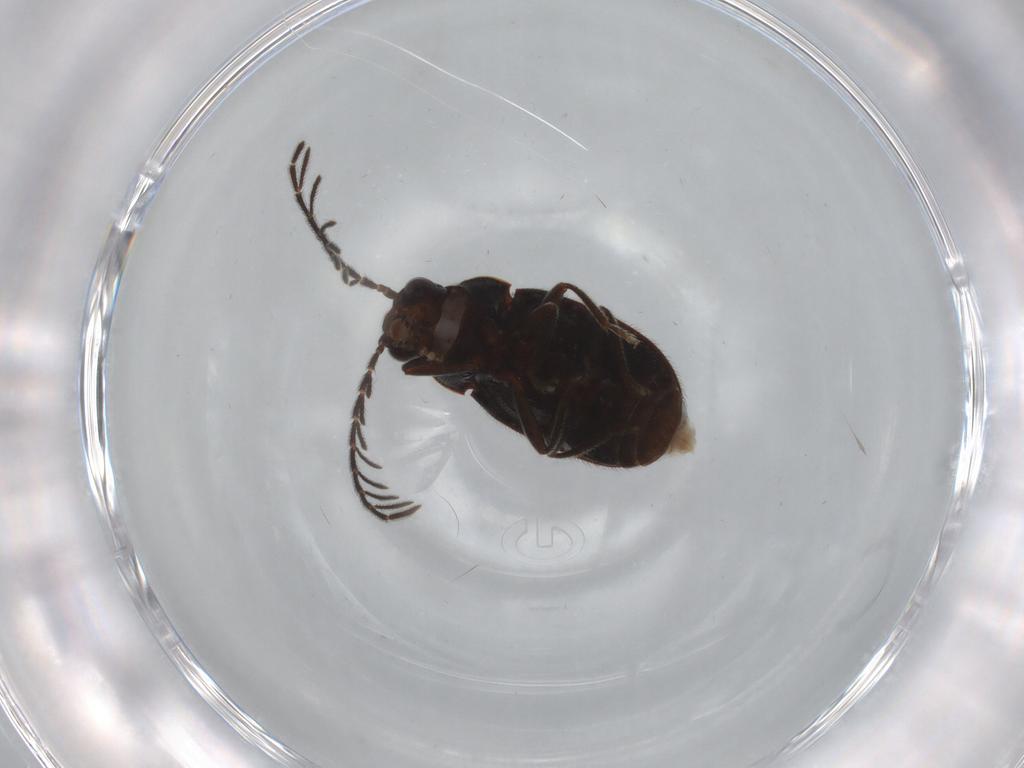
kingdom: Animalia
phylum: Arthropoda
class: Insecta
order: Coleoptera
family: Ptilodactylidae
